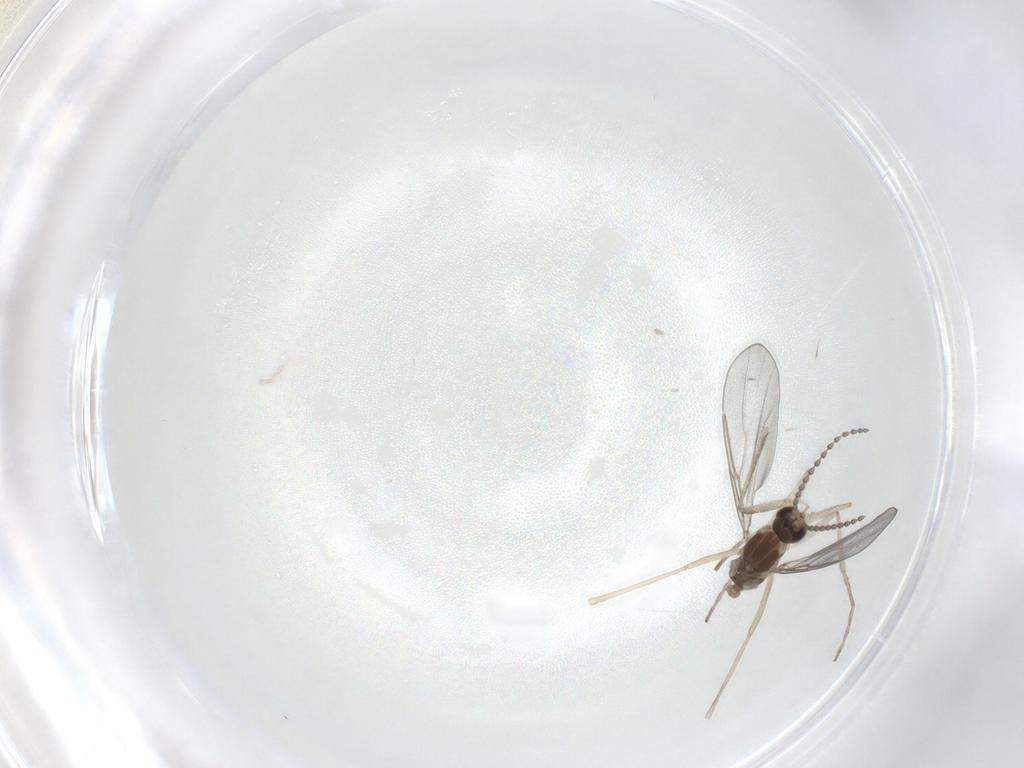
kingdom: Animalia
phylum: Arthropoda
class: Insecta
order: Diptera
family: Cecidomyiidae
